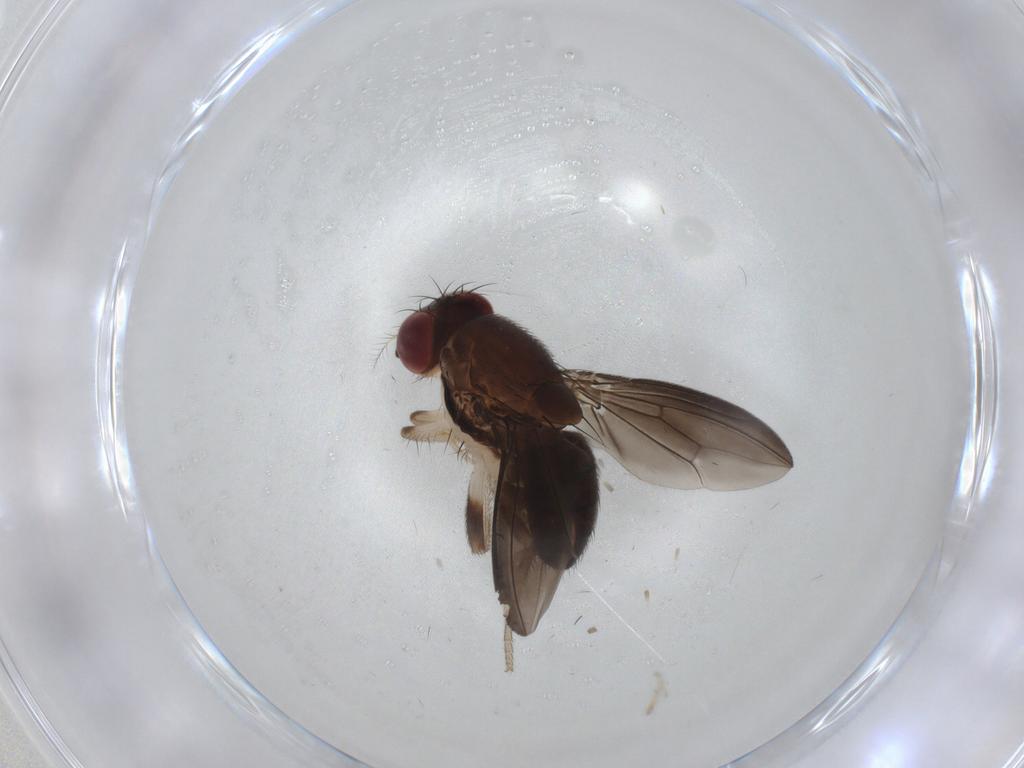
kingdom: Animalia
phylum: Arthropoda
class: Insecta
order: Diptera
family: Drosophilidae
